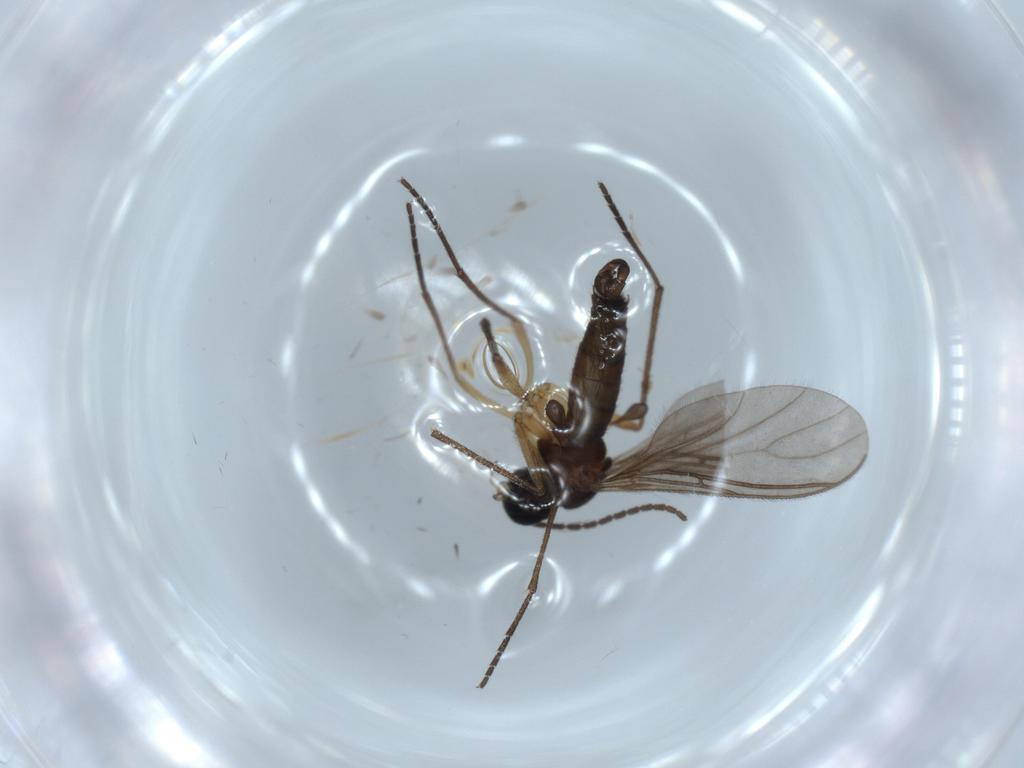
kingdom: Animalia
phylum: Arthropoda
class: Insecta
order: Diptera
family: Sciaridae
